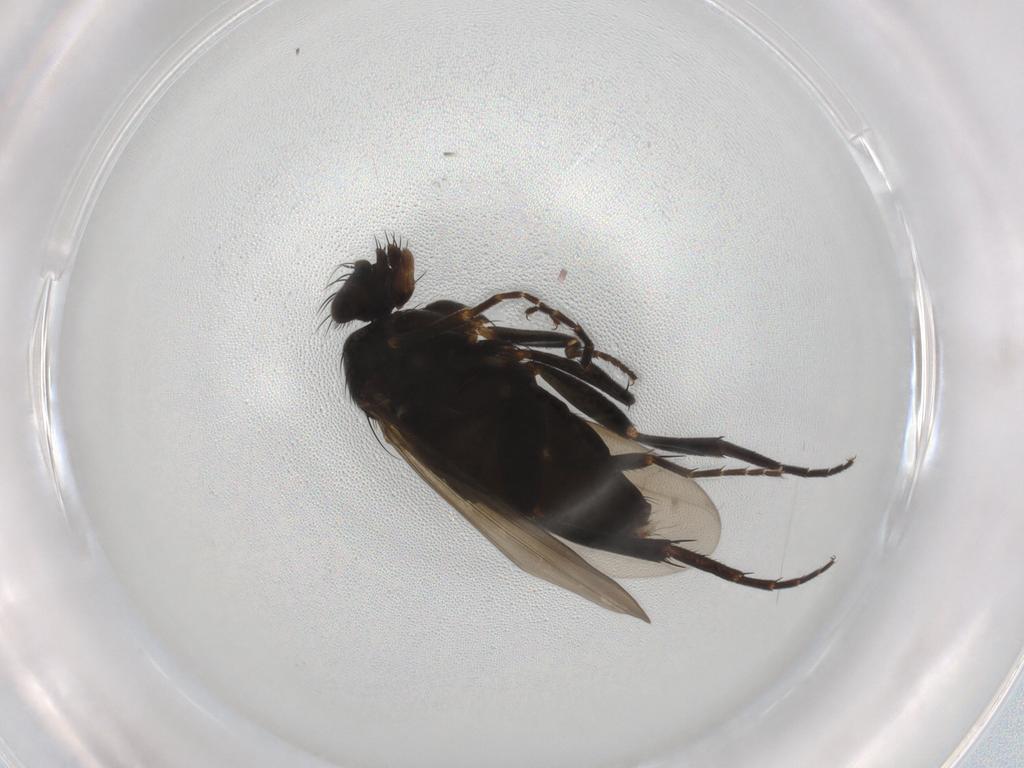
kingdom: Animalia
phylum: Arthropoda
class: Insecta
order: Diptera
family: Phoridae
